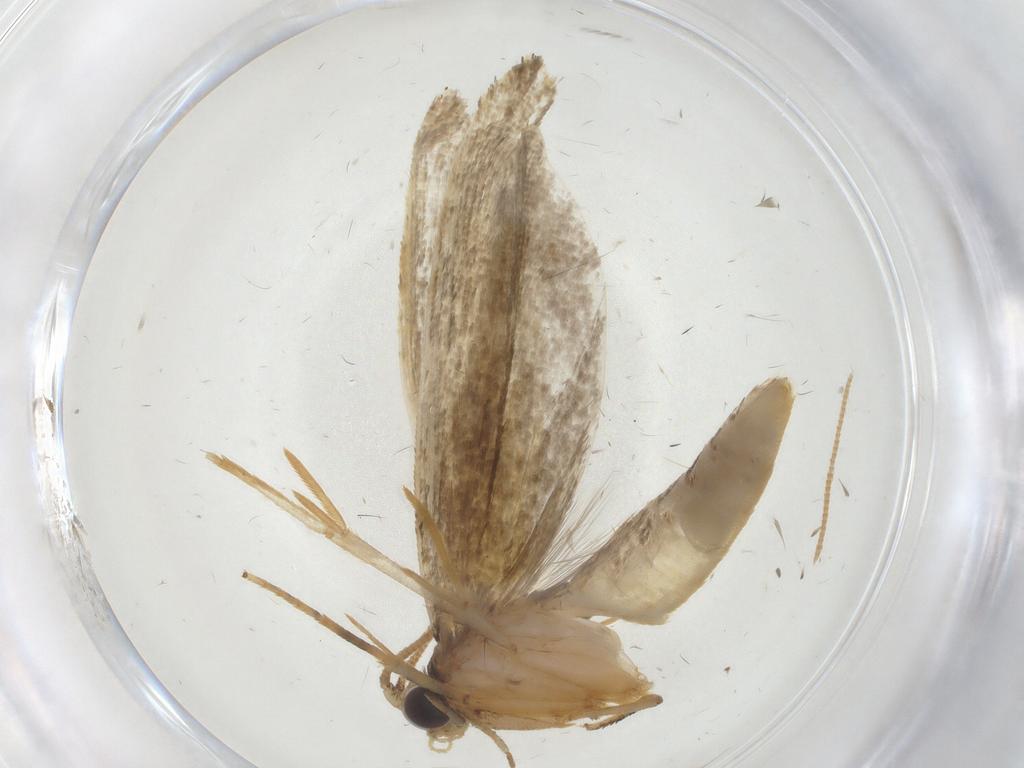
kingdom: Animalia
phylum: Arthropoda
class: Insecta
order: Lepidoptera
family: Tineidae
